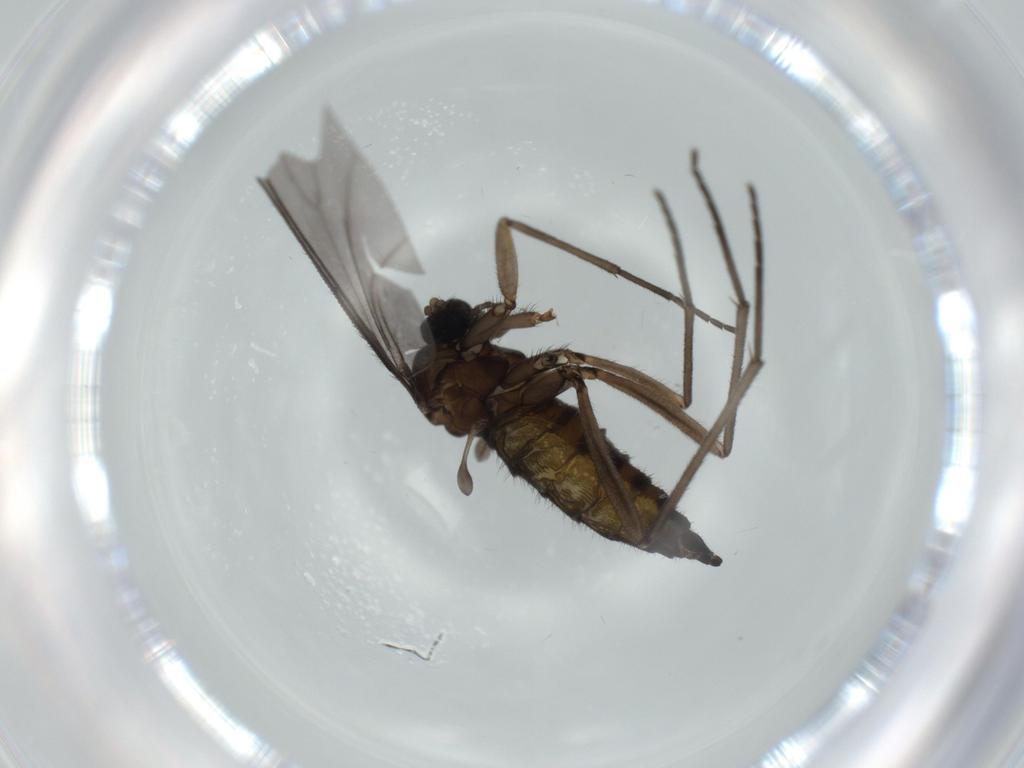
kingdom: Animalia
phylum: Arthropoda
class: Insecta
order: Diptera
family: Sciaridae
